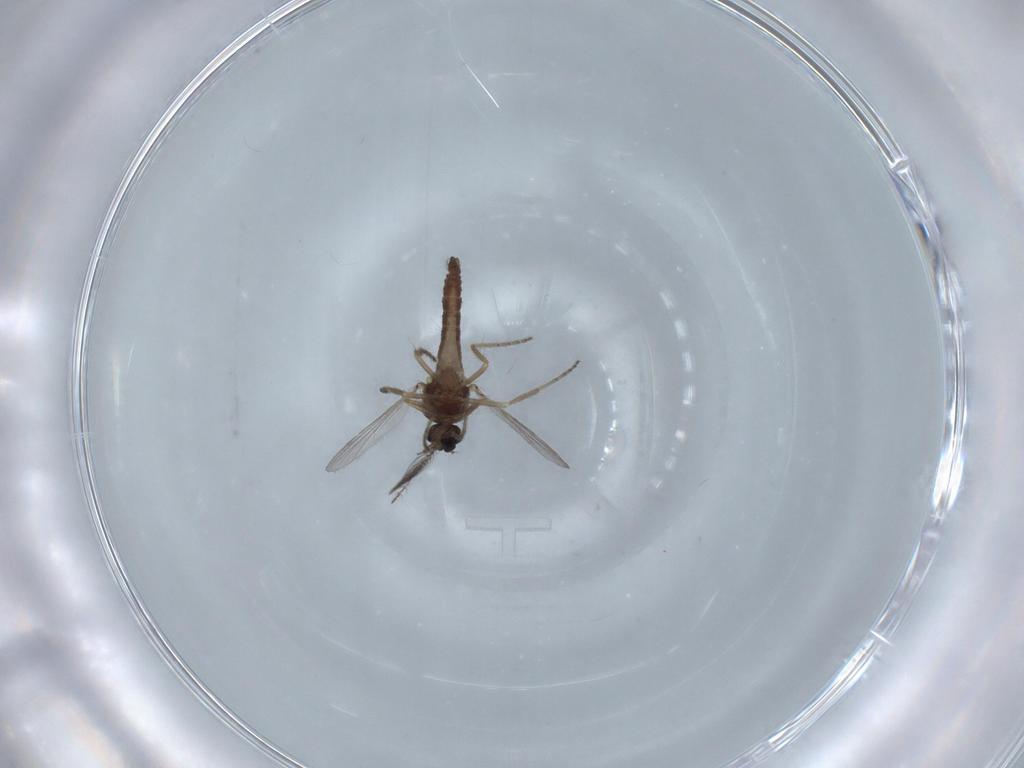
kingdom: Animalia
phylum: Arthropoda
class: Insecta
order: Diptera
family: Ceratopogonidae
